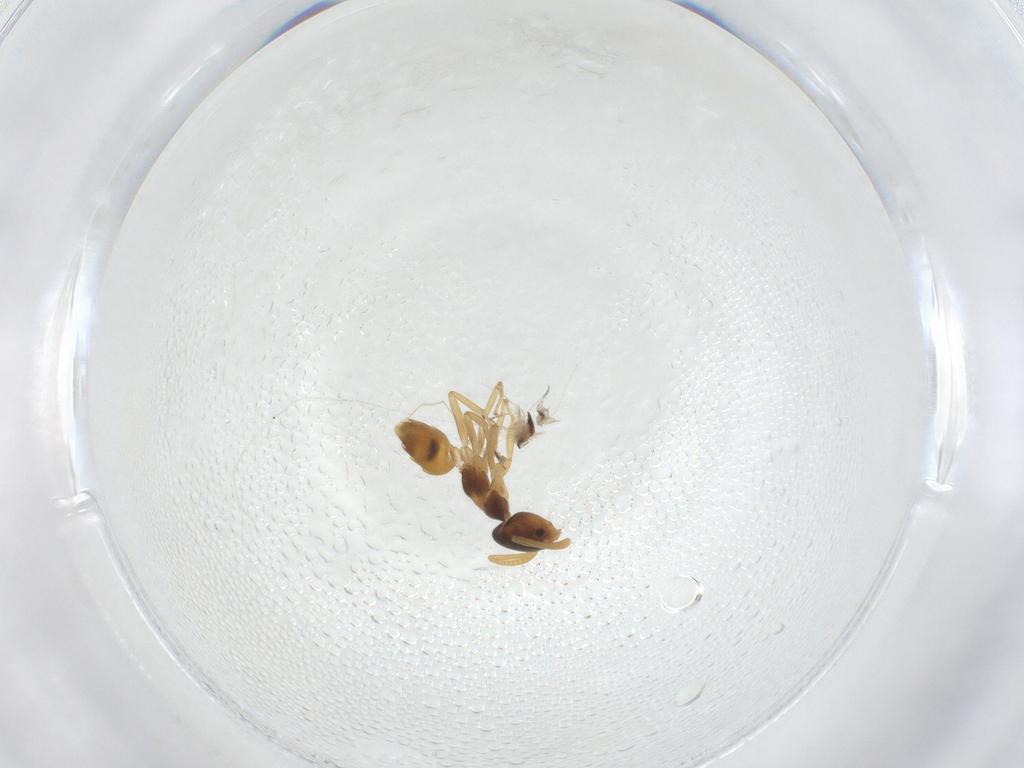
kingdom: Animalia
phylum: Arthropoda
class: Insecta
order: Hymenoptera
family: Formicidae
